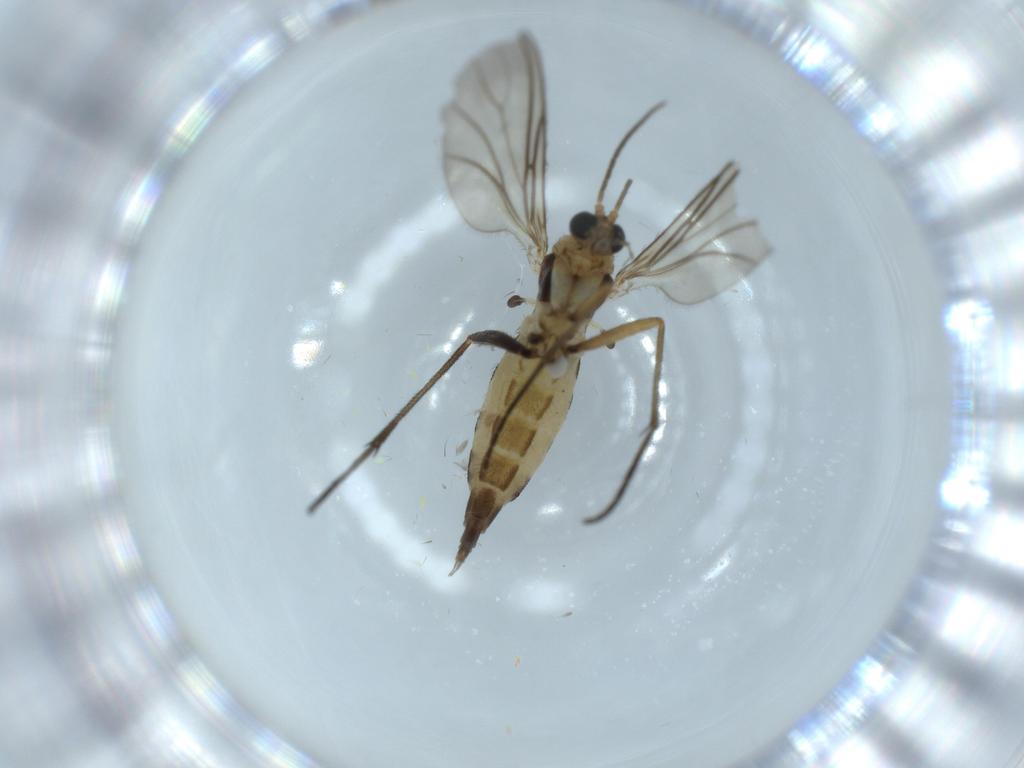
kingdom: Animalia
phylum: Arthropoda
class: Insecta
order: Diptera
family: Sciaridae
